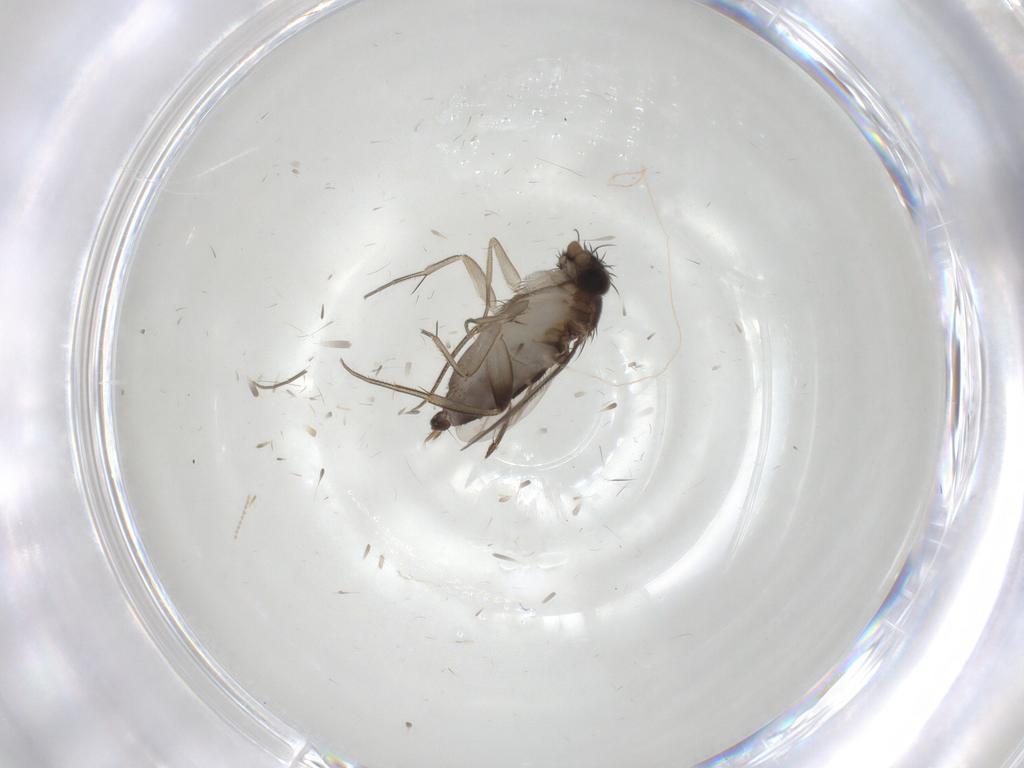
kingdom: Animalia
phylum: Arthropoda
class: Insecta
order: Diptera
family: Phoridae
